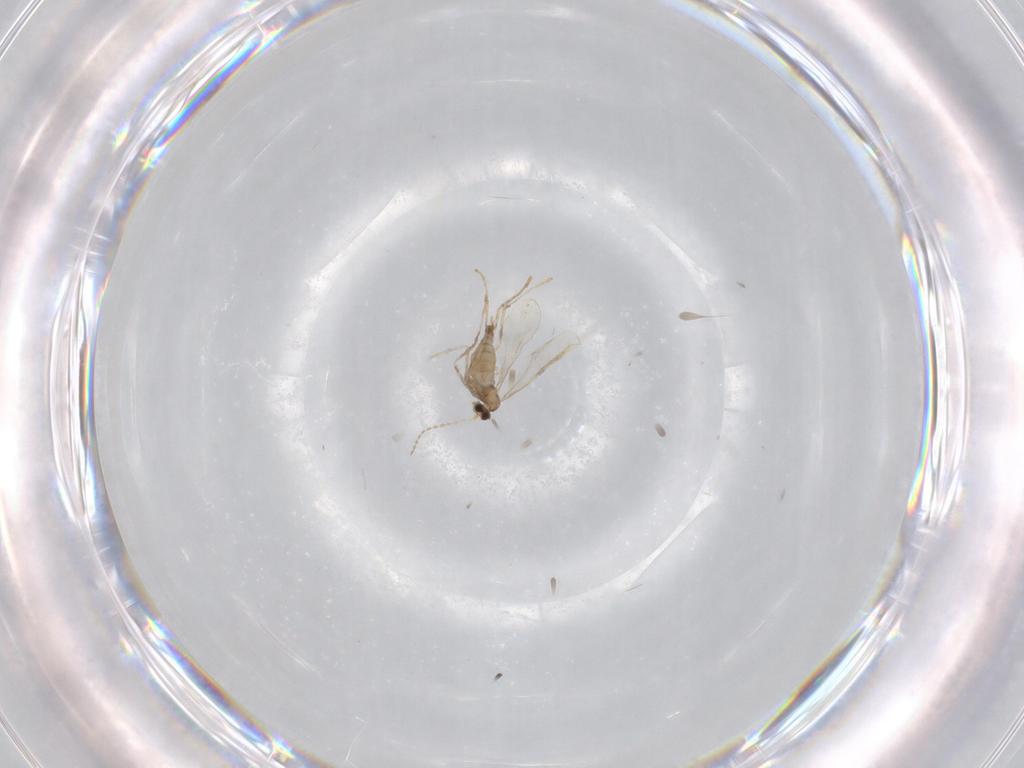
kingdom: Animalia
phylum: Arthropoda
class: Insecta
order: Diptera
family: Cecidomyiidae
